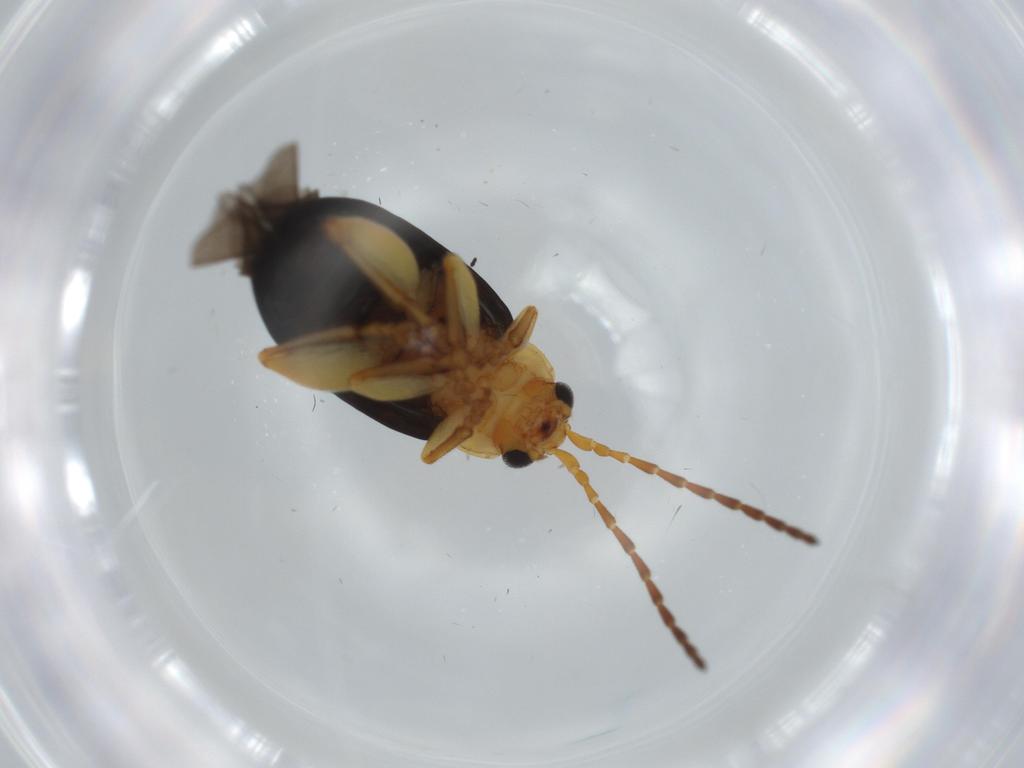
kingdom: Animalia
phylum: Arthropoda
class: Insecta
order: Coleoptera
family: Chrysomelidae
